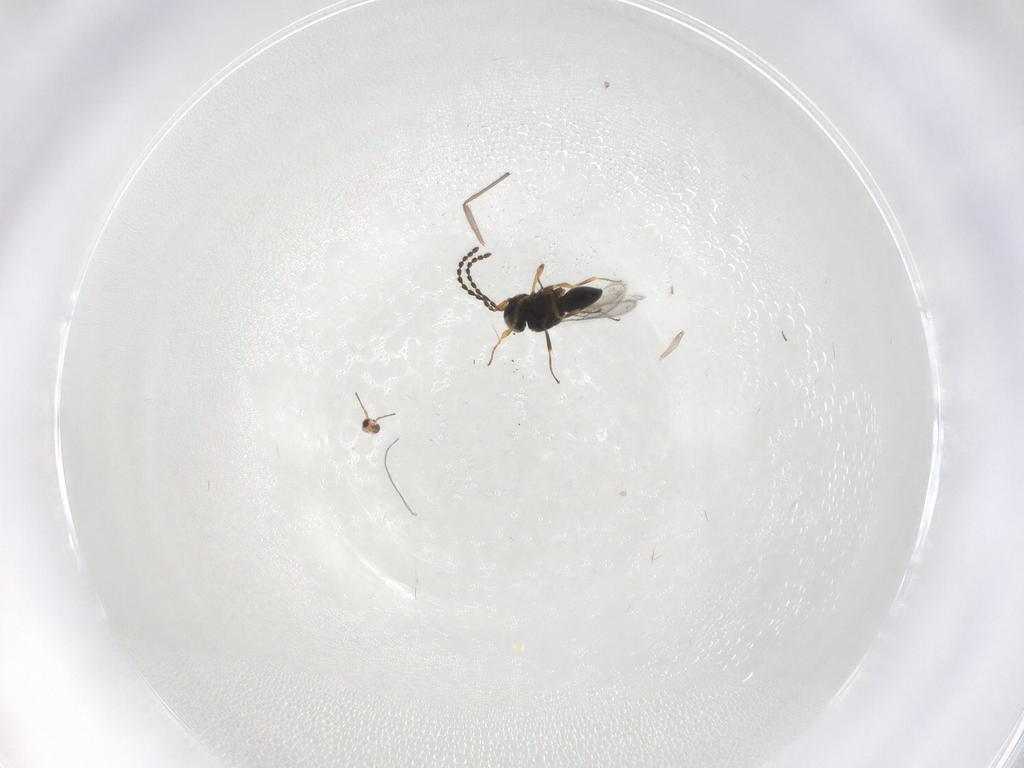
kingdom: Animalia
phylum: Arthropoda
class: Insecta
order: Hymenoptera
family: Scelionidae
